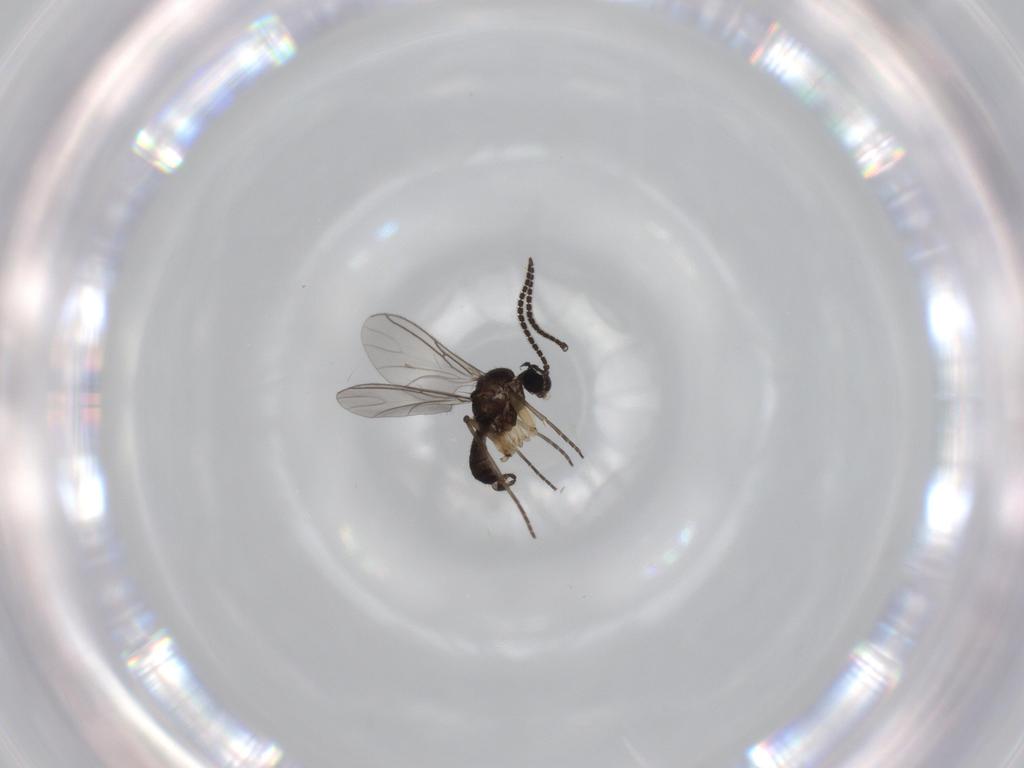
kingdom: Animalia
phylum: Arthropoda
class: Insecta
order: Diptera
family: Sciaridae
